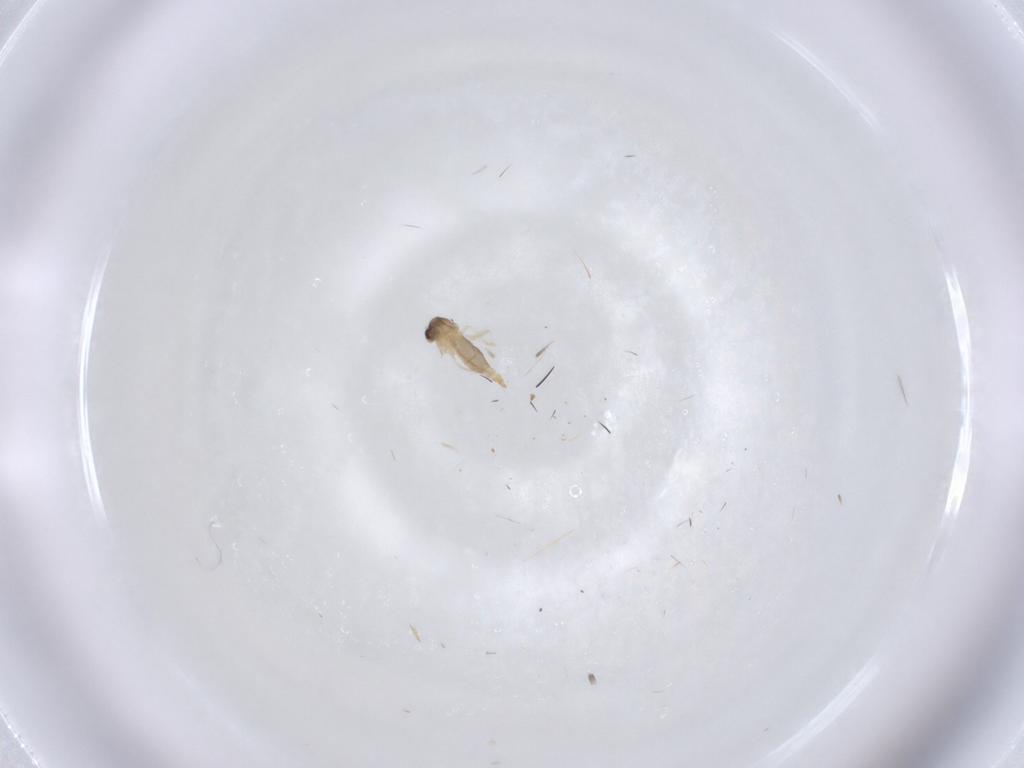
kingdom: Animalia
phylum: Arthropoda
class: Insecta
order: Diptera
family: Cecidomyiidae
